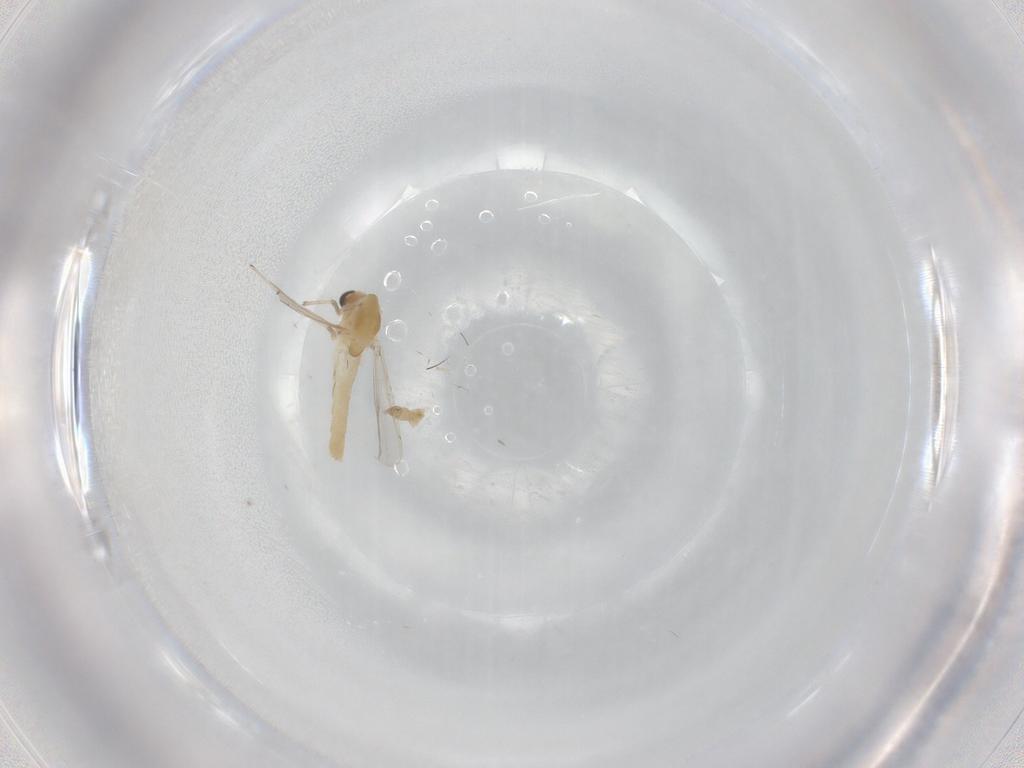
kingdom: Animalia
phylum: Arthropoda
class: Insecta
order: Diptera
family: Chironomidae
